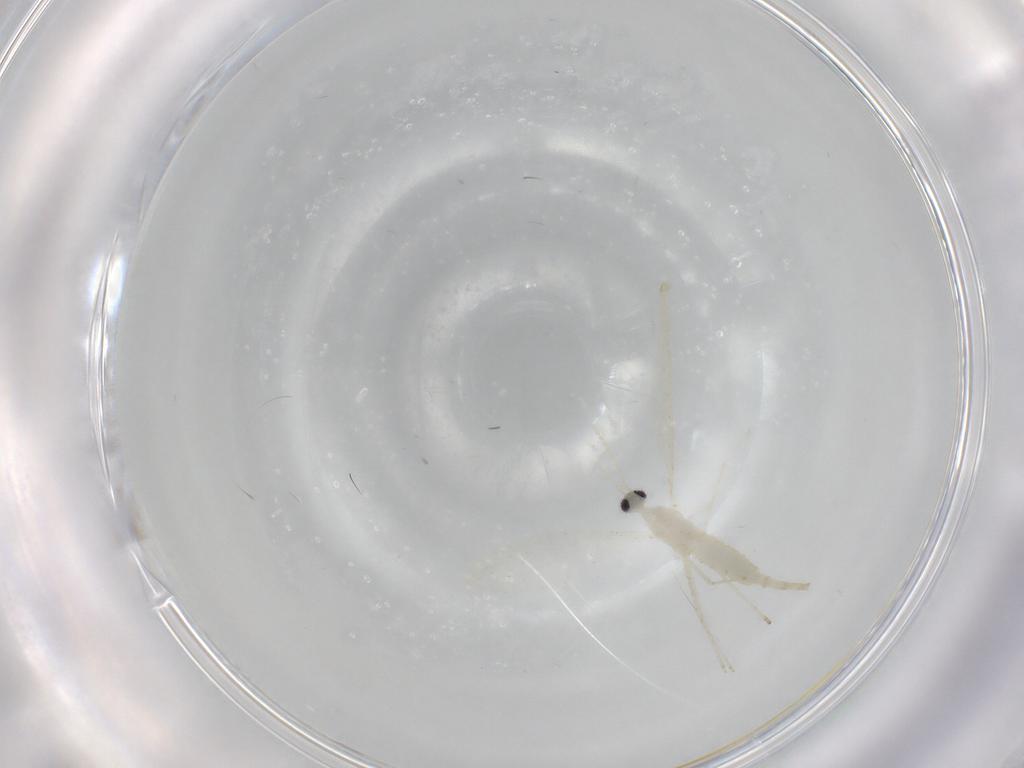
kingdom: Animalia
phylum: Arthropoda
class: Insecta
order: Diptera
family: Cecidomyiidae
